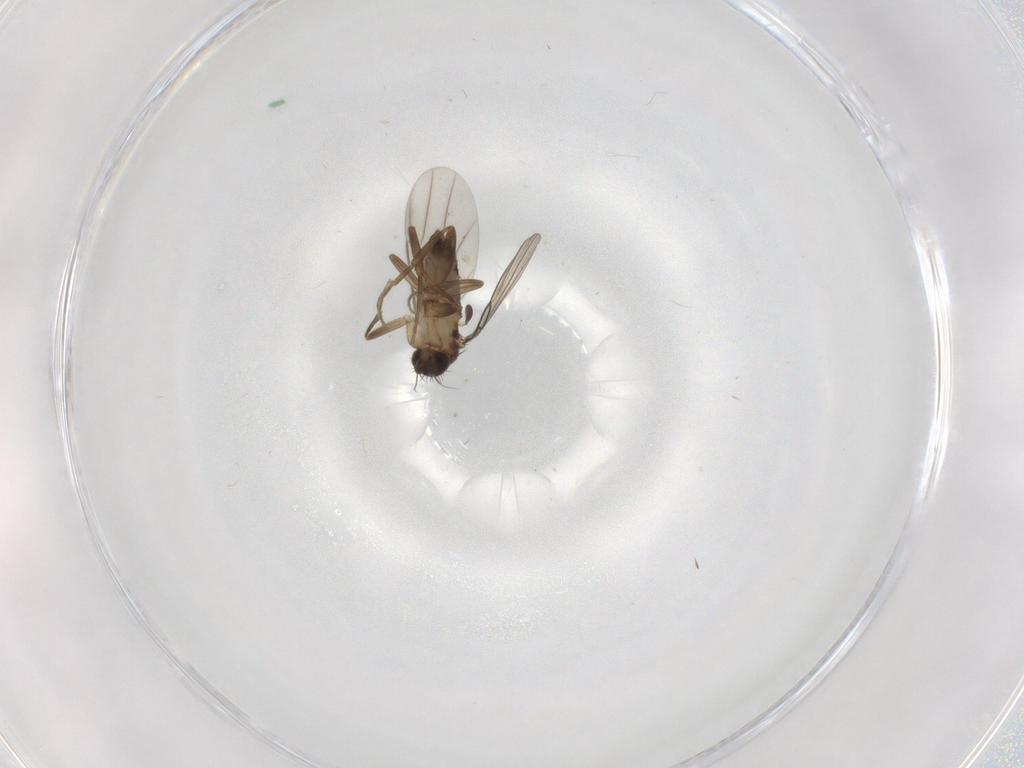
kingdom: Animalia
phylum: Arthropoda
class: Insecta
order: Diptera
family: Phoridae
